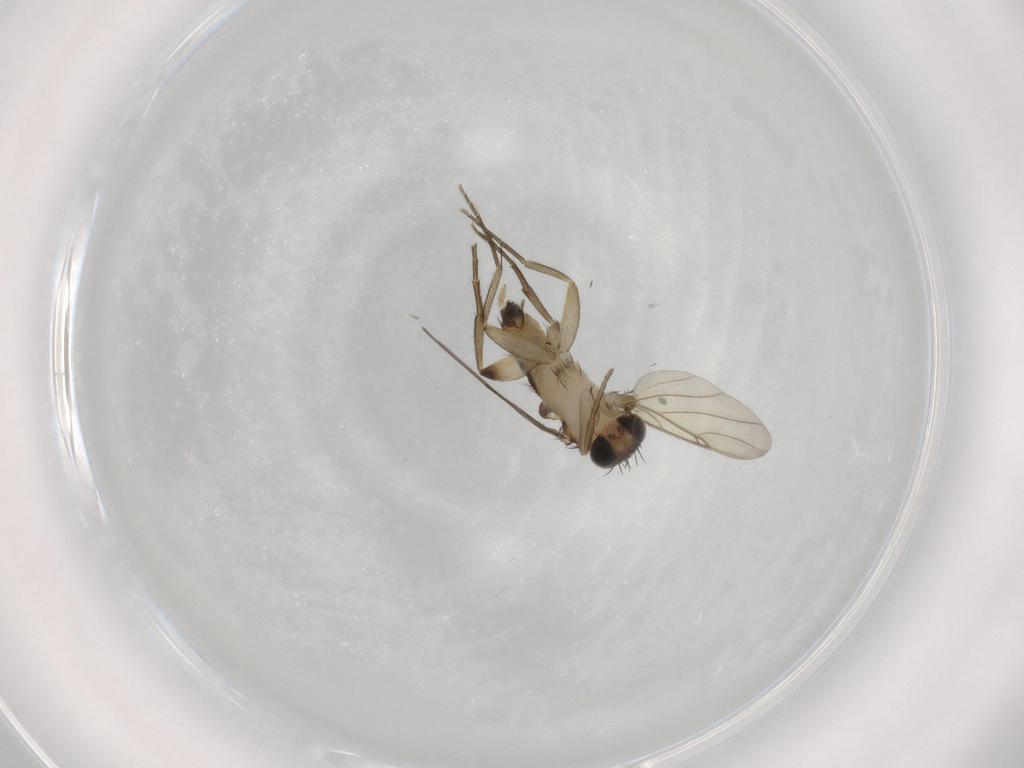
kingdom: Animalia
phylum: Arthropoda
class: Insecta
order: Diptera
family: Phoridae
